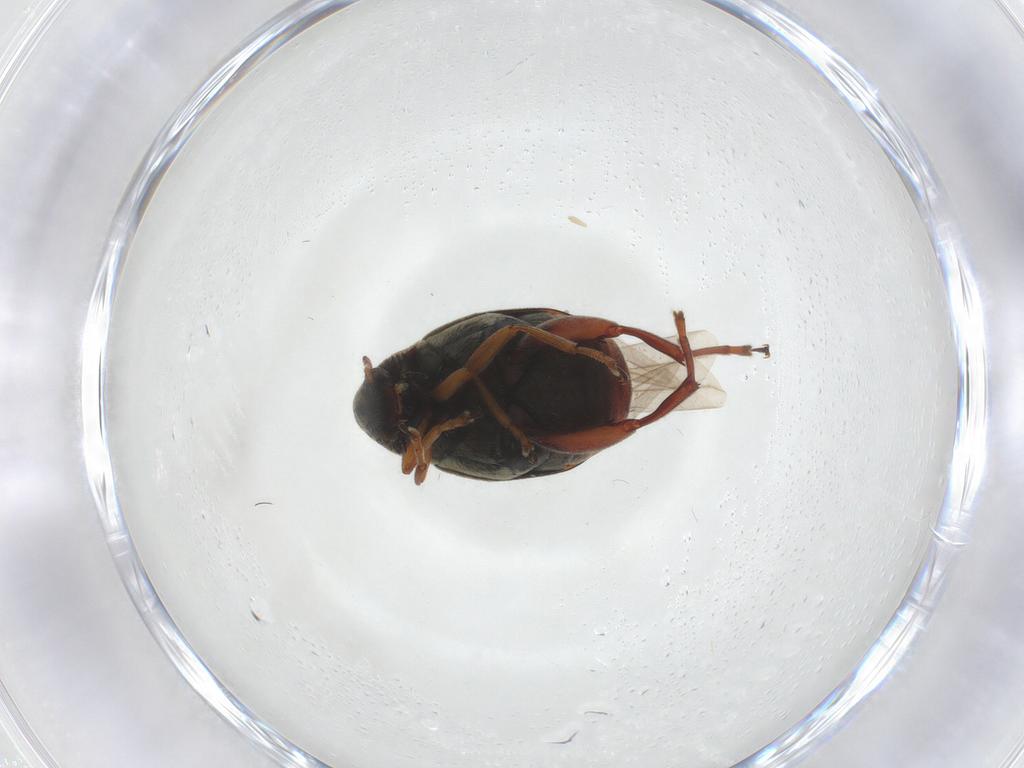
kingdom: Animalia
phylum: Arthropoda
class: Insecta
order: Coleoptera
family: Chrysomelidae
